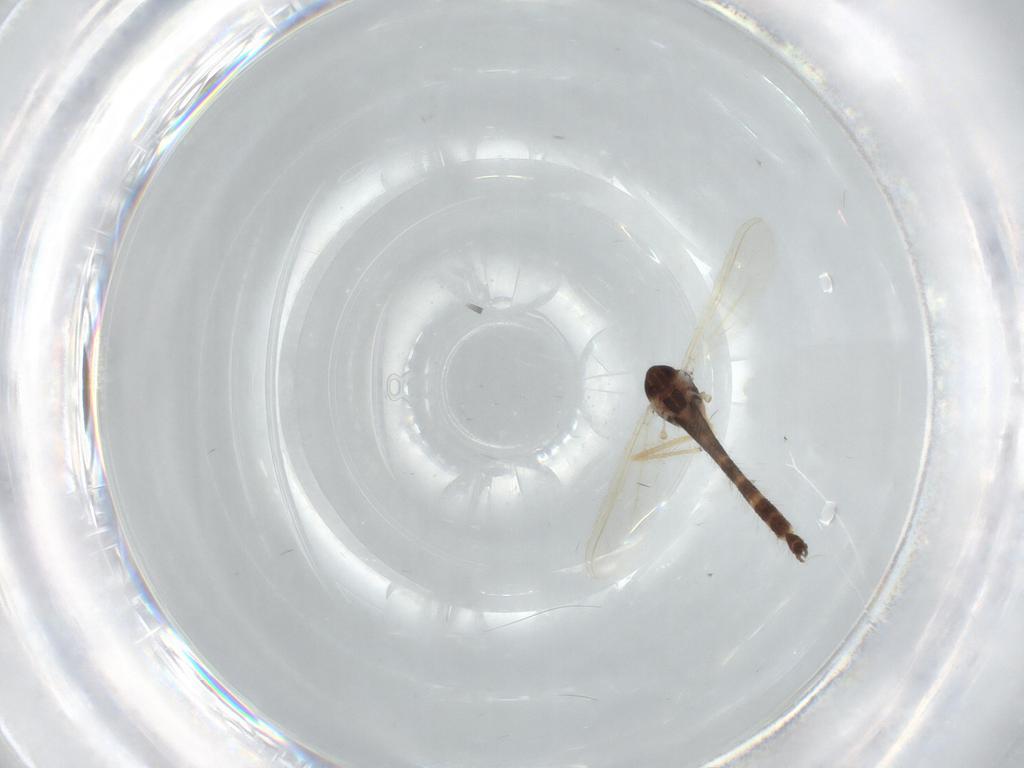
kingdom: Animalia
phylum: Arthropoda
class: Insecta
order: Diptera
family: Chironomidae
